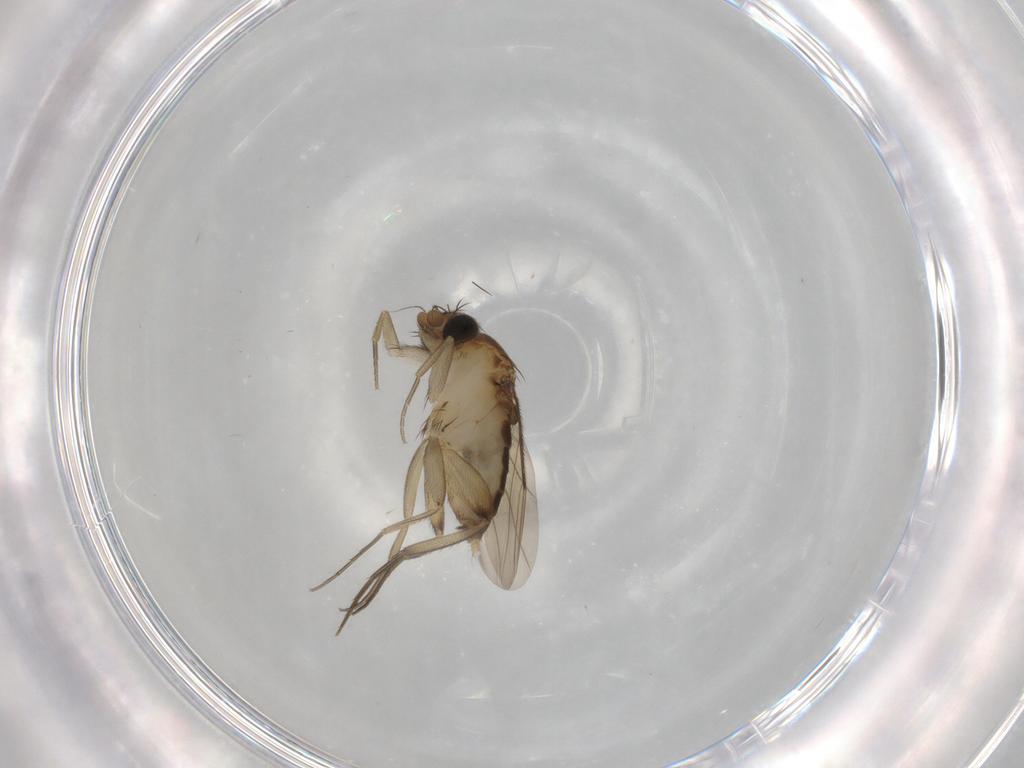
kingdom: Animalia
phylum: Arthropoda
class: Insecta
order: Diptera
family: Phoridae
